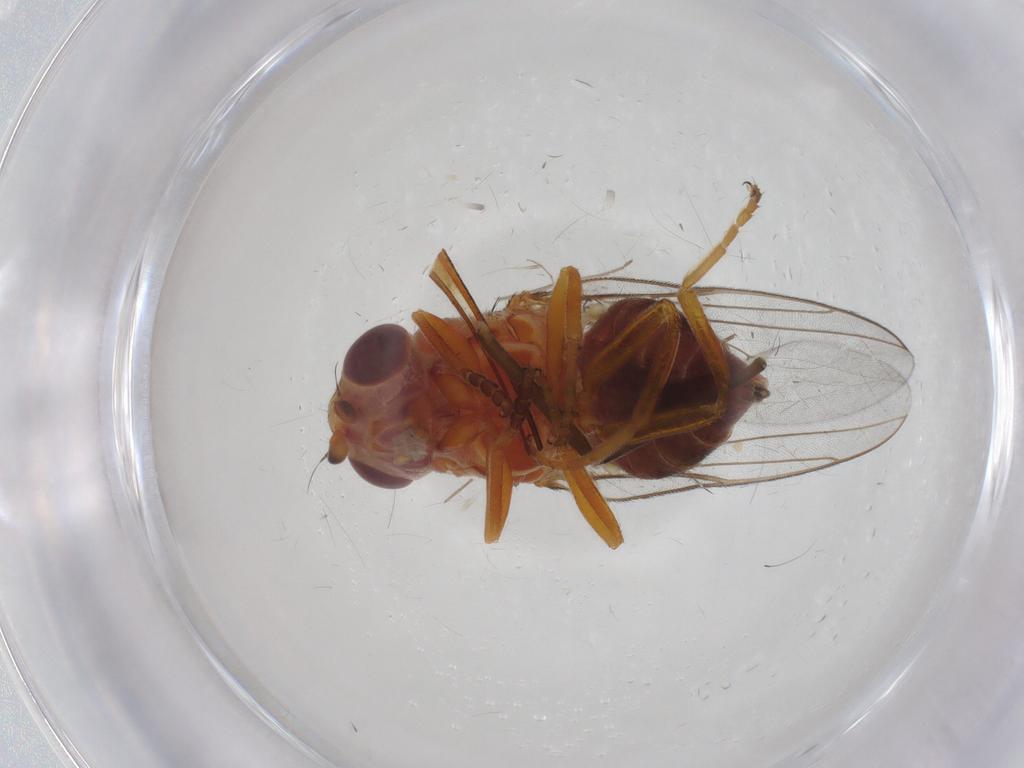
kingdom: Animalia
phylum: Arthropoda
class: Insecta
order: Diptera
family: Chloropidae
